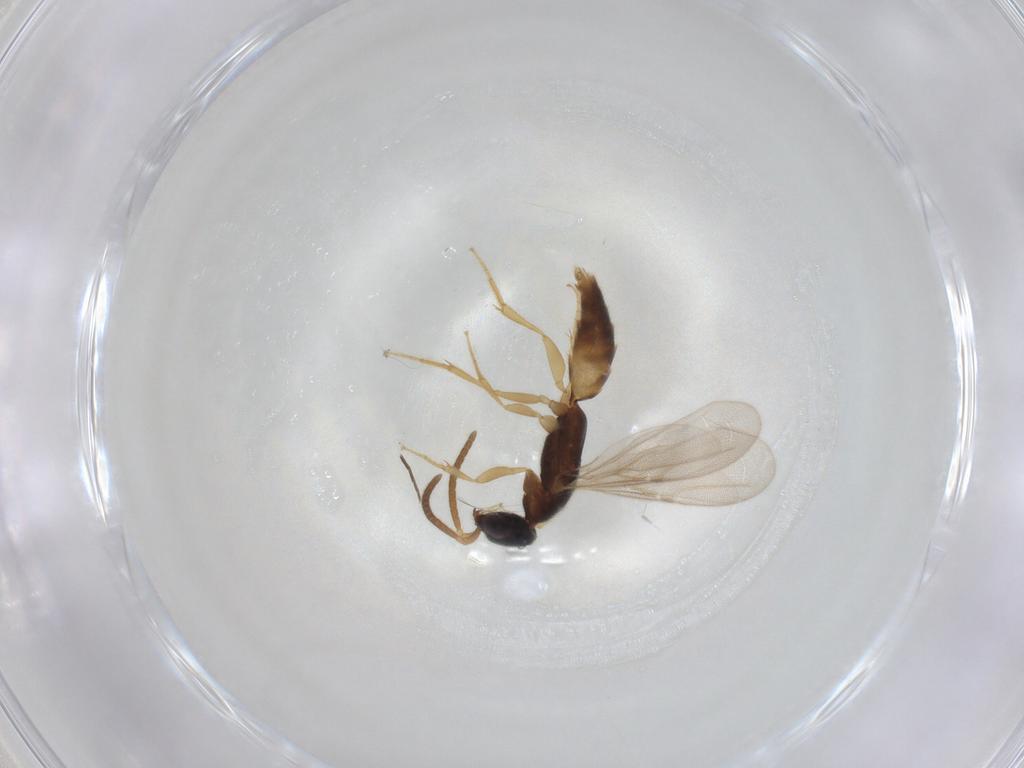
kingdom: Animalia
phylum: Arthropoda
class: Insecta
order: Hymenoptera
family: Bethylidae
